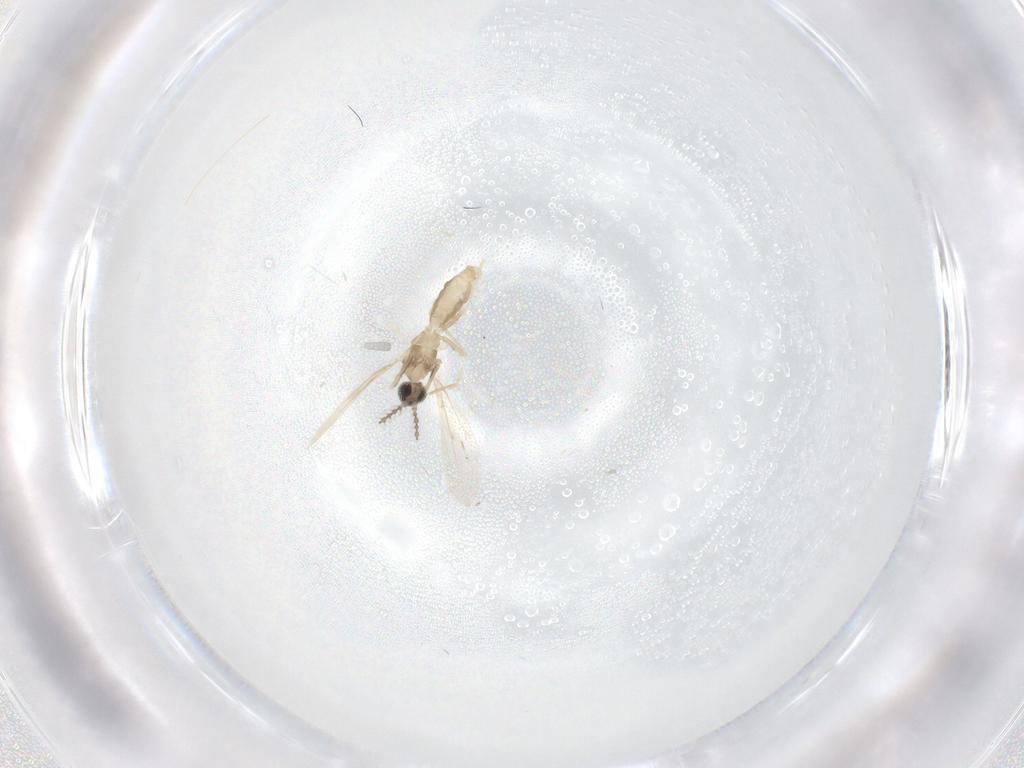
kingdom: Animalia
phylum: Arthropoda
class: Insecta
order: Diptera
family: Cecidomyiidae
